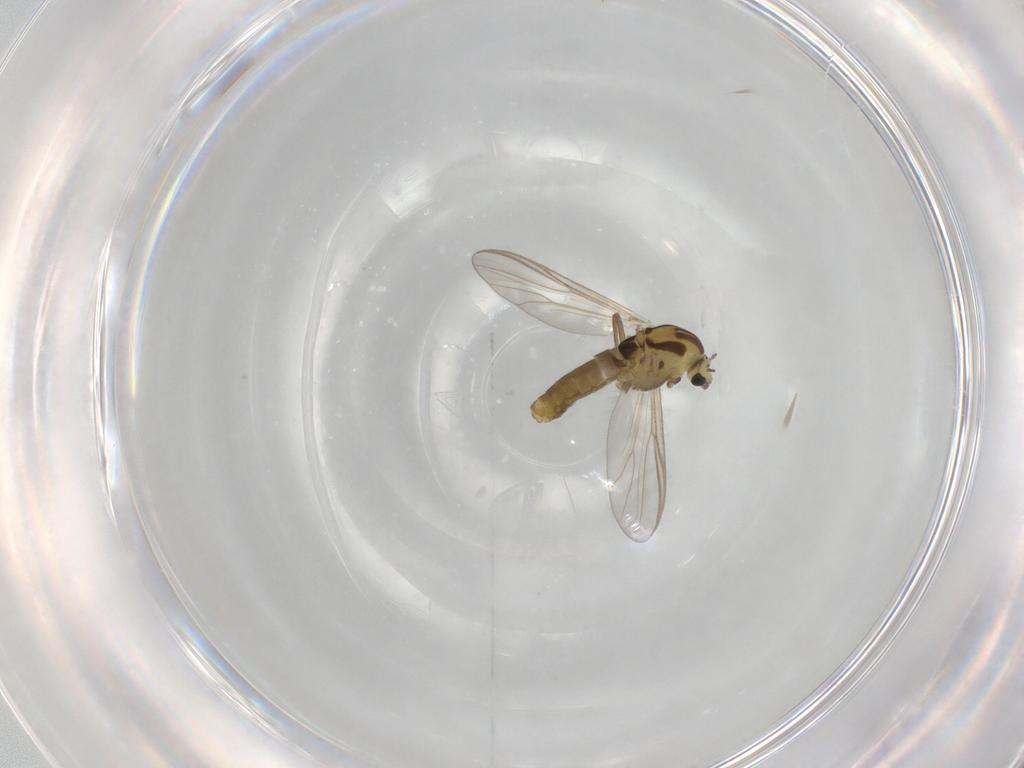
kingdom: Animalia
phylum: Arthropoda
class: Insecta
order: Diptera
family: Chironomidae
